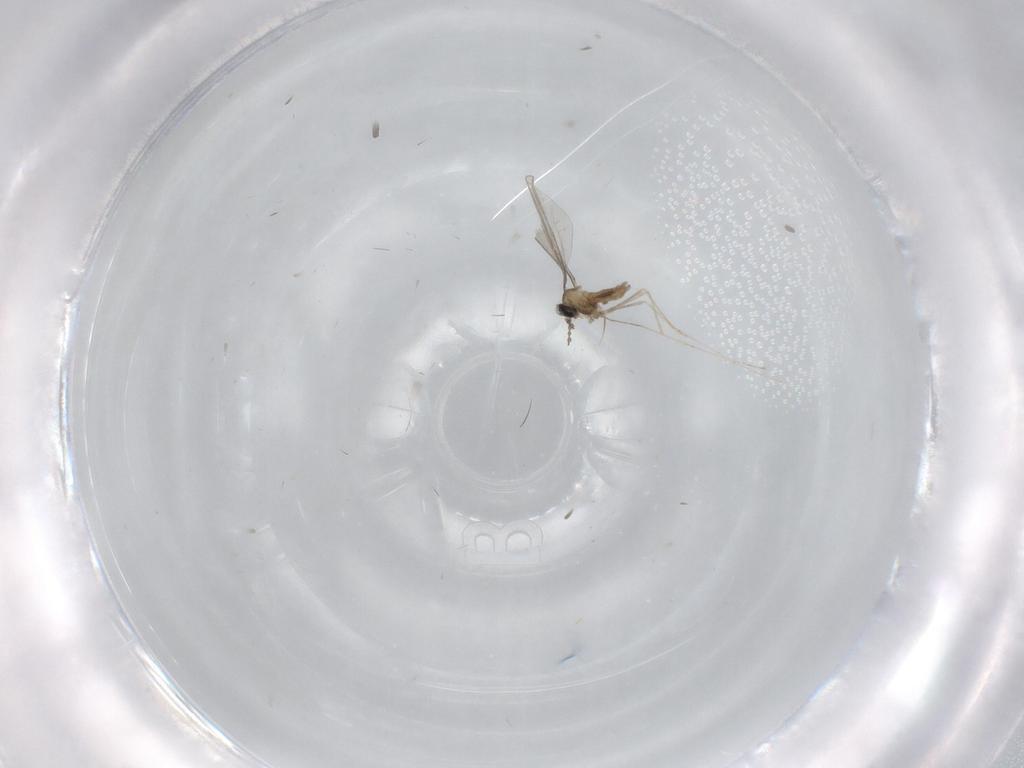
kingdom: Animalia
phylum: Arthropoda
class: Insecta
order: Diptera
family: Cecidomyiidae
